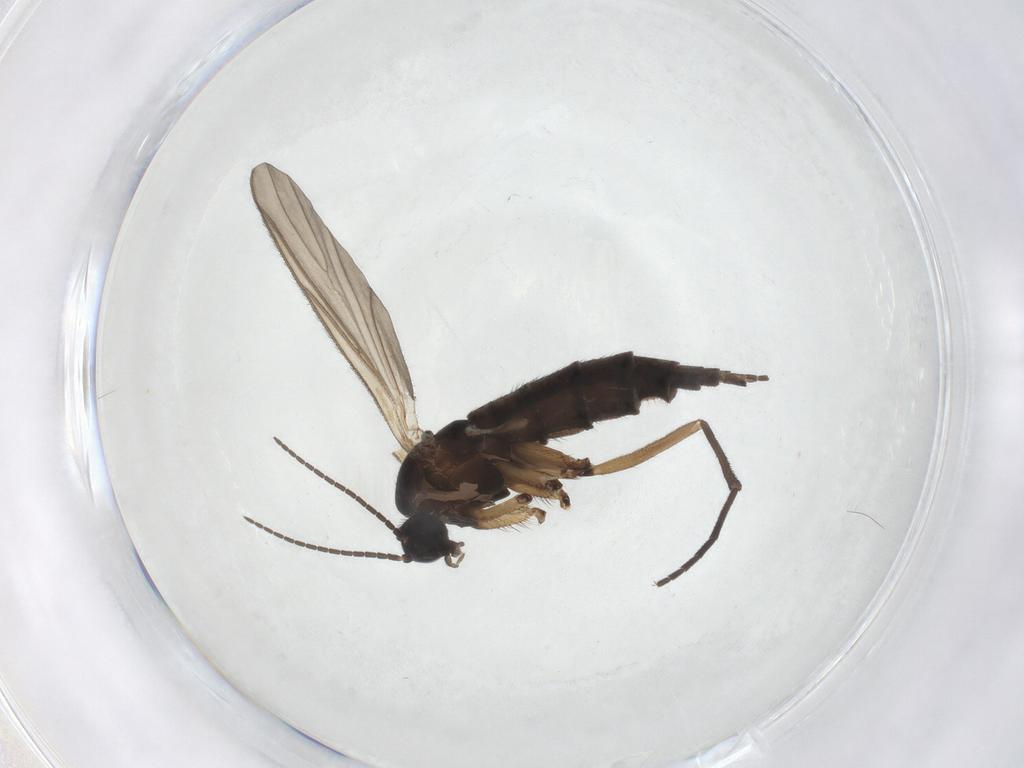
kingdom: Animalia
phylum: Arthropoda
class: Insecta
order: Diptera
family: Sciaridae
